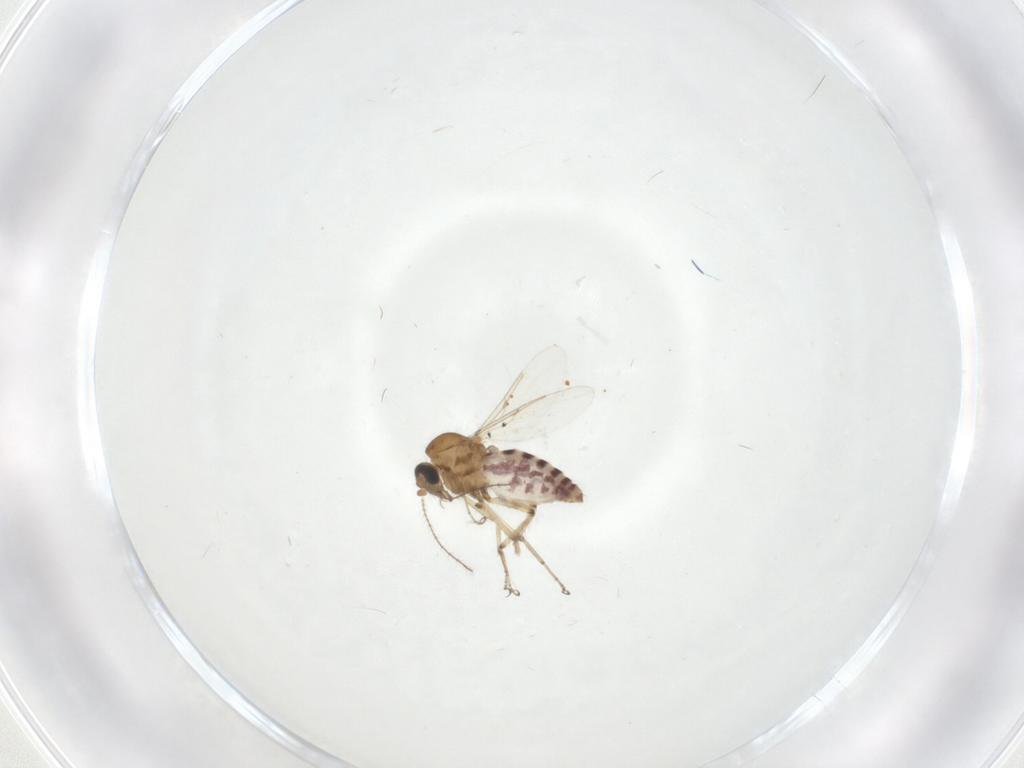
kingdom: Animalia
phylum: Arthropoda
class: Insecta
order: Diptera
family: Ceratopogonidae
